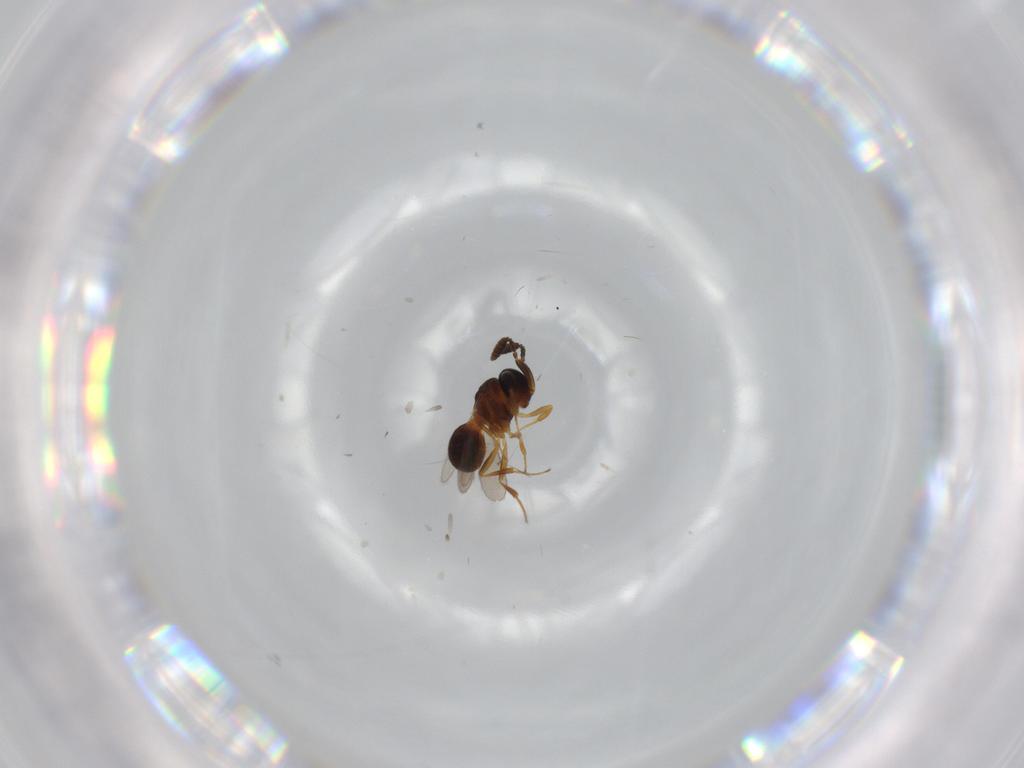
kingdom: Animalia
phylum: Arthropoda
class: Insecta
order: Hymenoptera
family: Scelionidae
